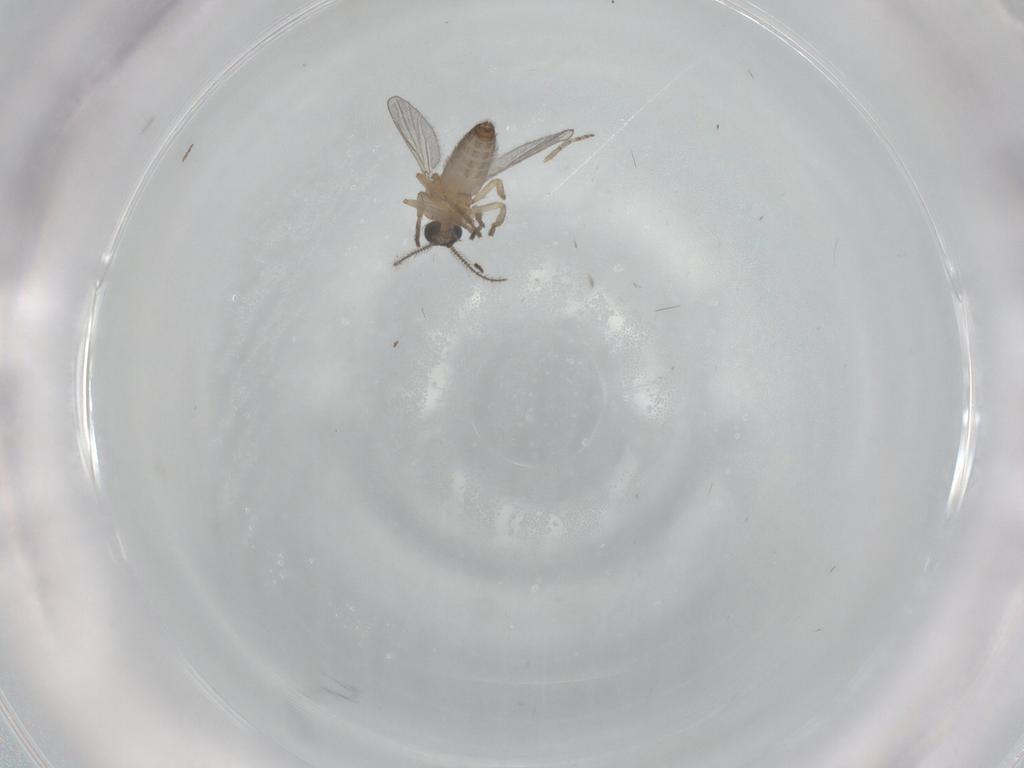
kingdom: Animalia
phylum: Arthropoda
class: Insecta
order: Diptera
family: Ceratopogonidae
